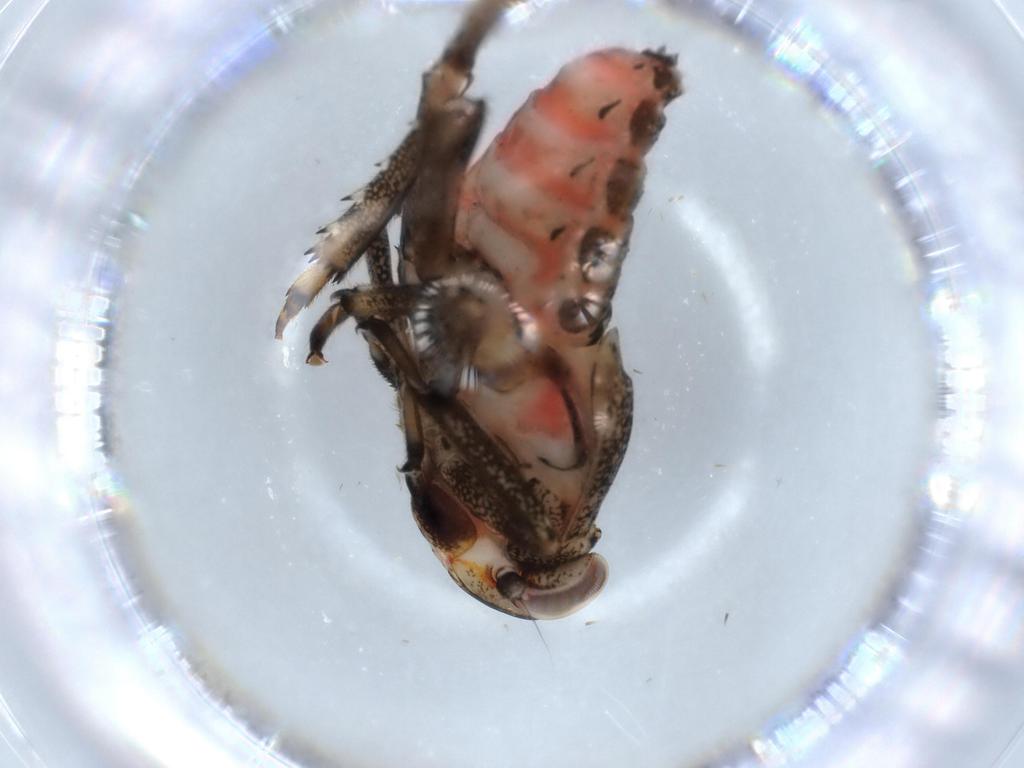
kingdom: Animalia
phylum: Arthropoda
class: Insecta
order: Hemiptera
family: Issidae
